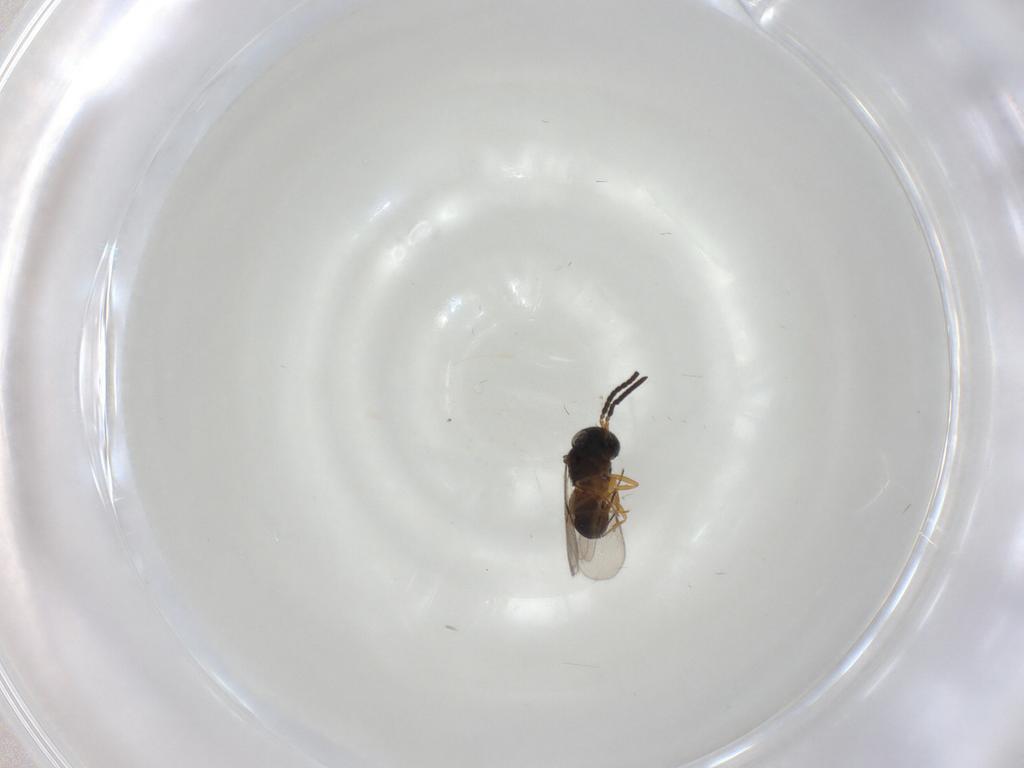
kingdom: Animalia
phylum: Arthropoda
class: Insecta
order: Hymenoptera
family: Scelionidae
